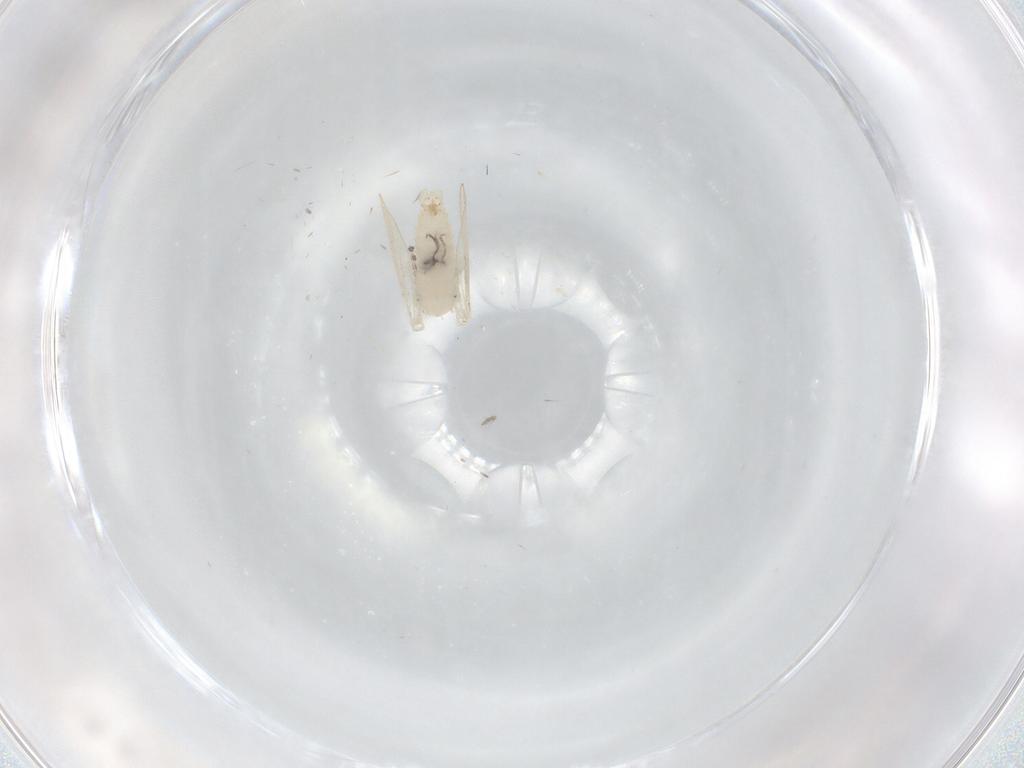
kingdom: Animalia
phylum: Arthropoda
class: Insecta
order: Diptera
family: Psychodidae
